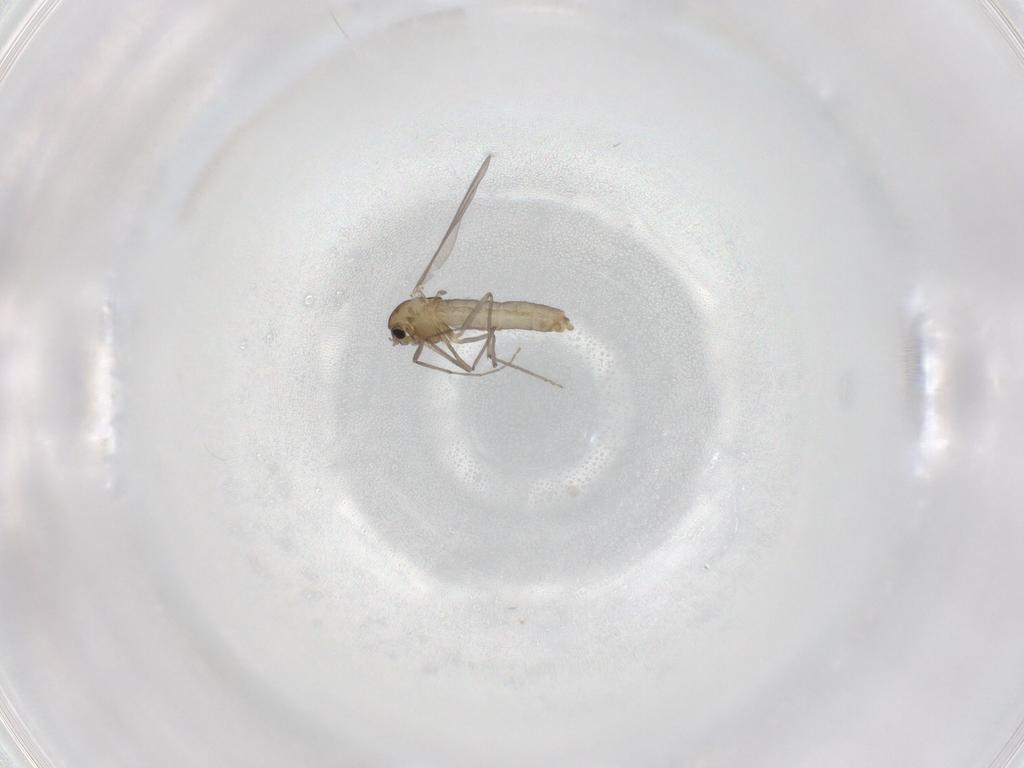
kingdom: Animalia
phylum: Arthropoda
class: Insecta
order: Diptera
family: Chironomidae
